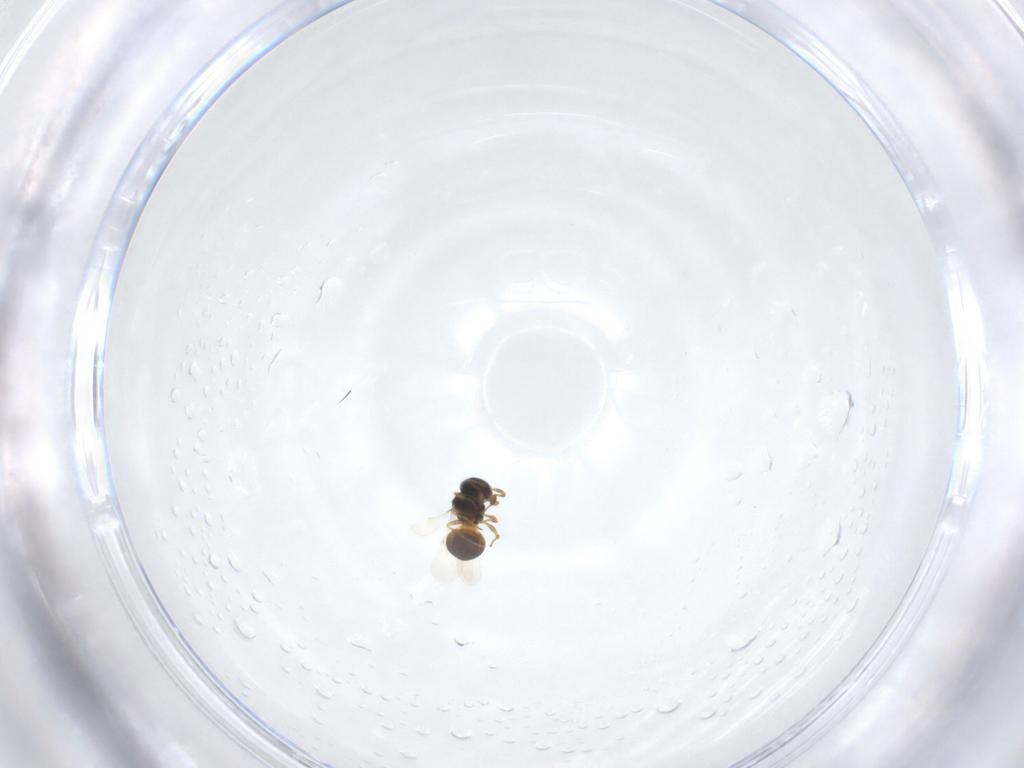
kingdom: Animalia
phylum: Arthropoda
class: Insecta
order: Hymenoptera
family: Scelionidae
